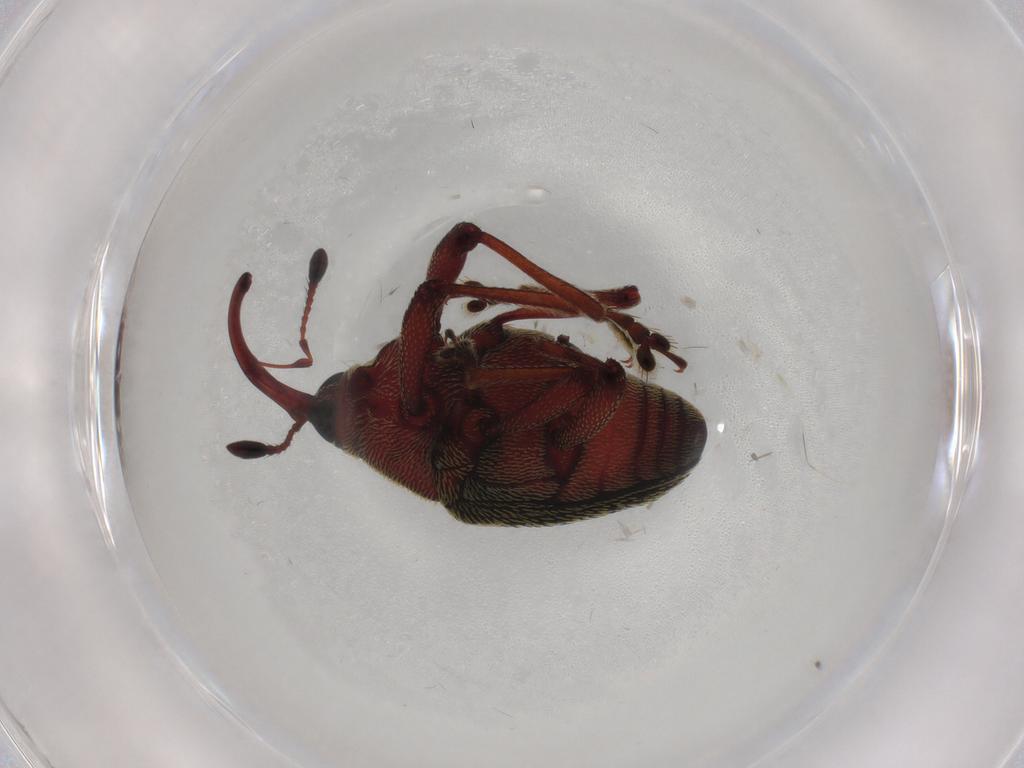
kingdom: Animalia
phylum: Arthropoda
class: Insecta
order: Coleoptera
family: Curculionidae
